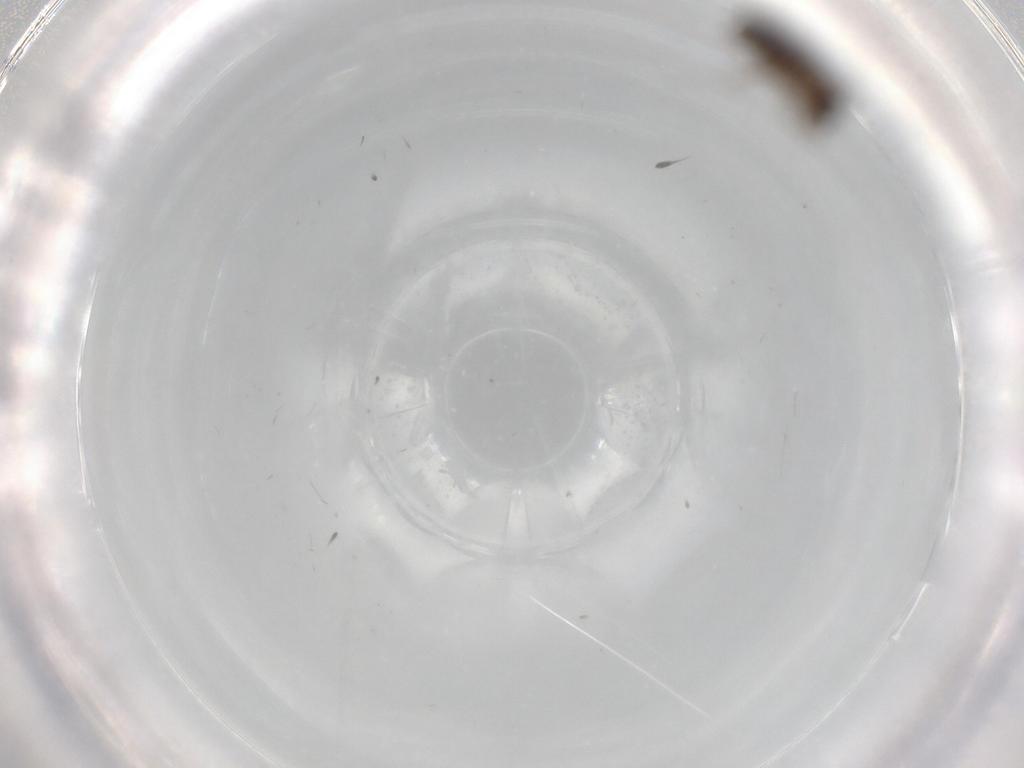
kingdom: Animalia
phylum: Arthropoda
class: Insecta
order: Diptera
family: Phoridae
